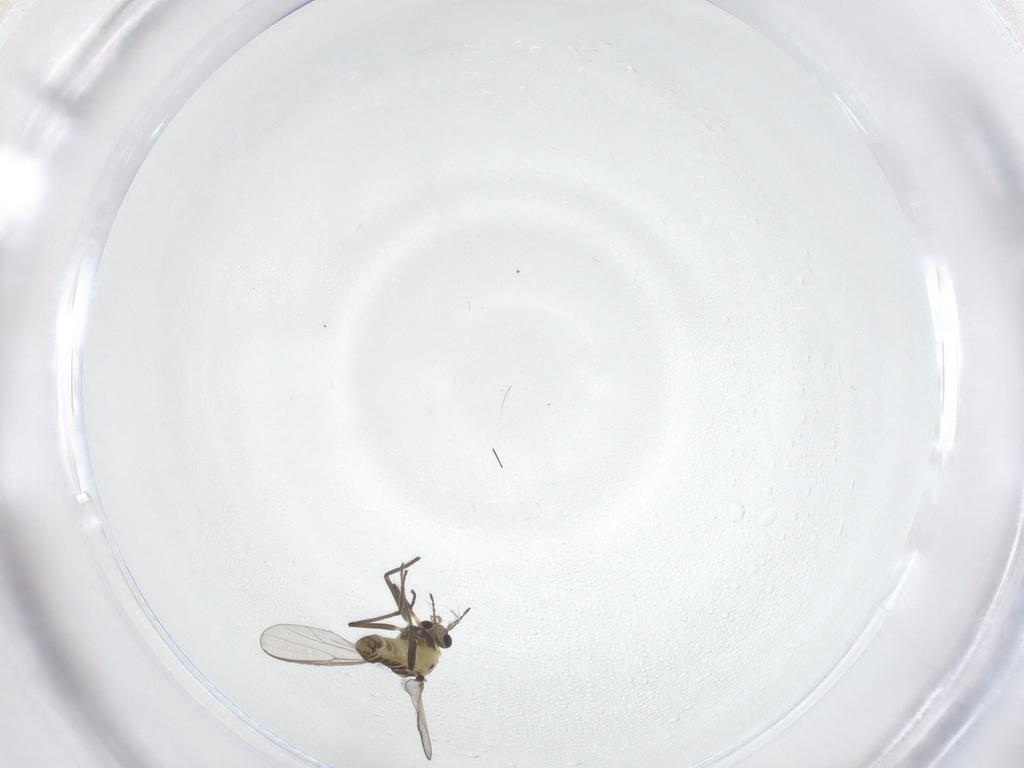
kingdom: Animalia
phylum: Arthropoda
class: Insecta
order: Diptera
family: Chironomidae
